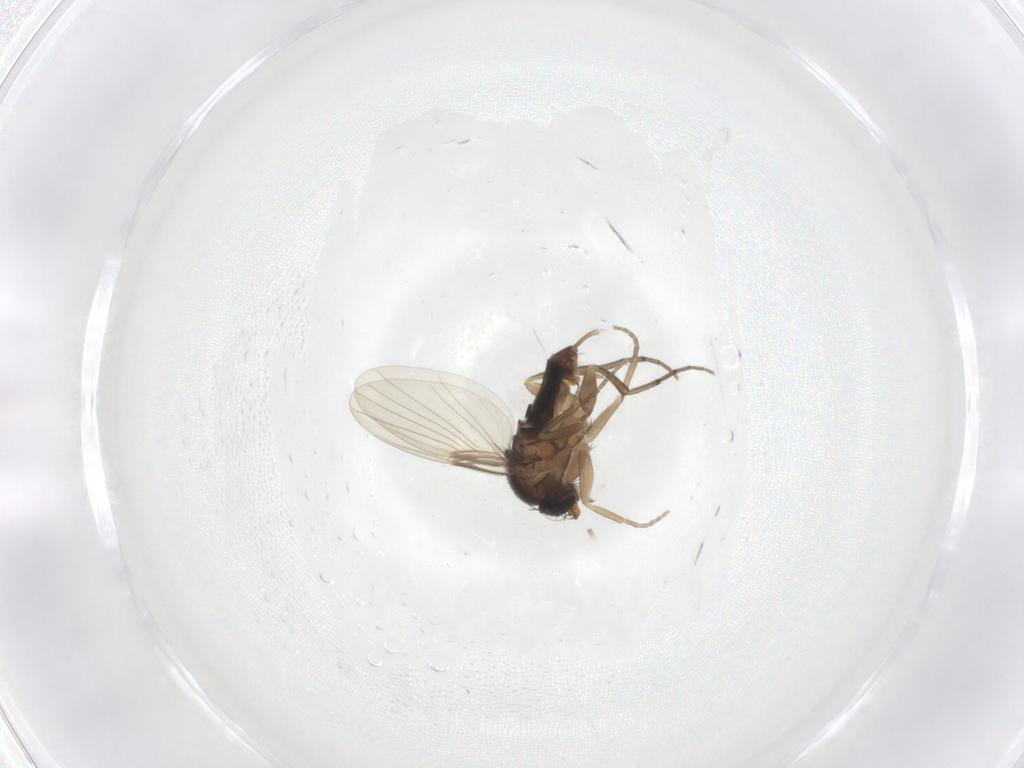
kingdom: Animalia
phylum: Arthropoda
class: Insecta
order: Diptera
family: Phoridae
